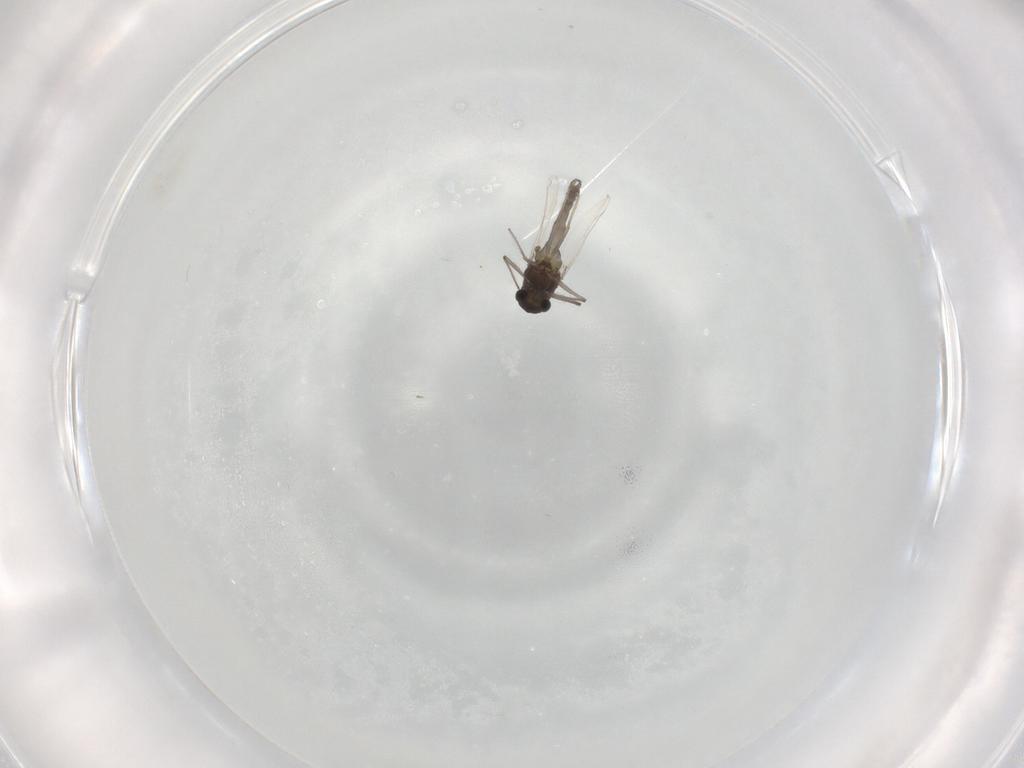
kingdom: Animalia
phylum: Arthropoda
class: Insecta
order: Diptera
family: Chironomidae
